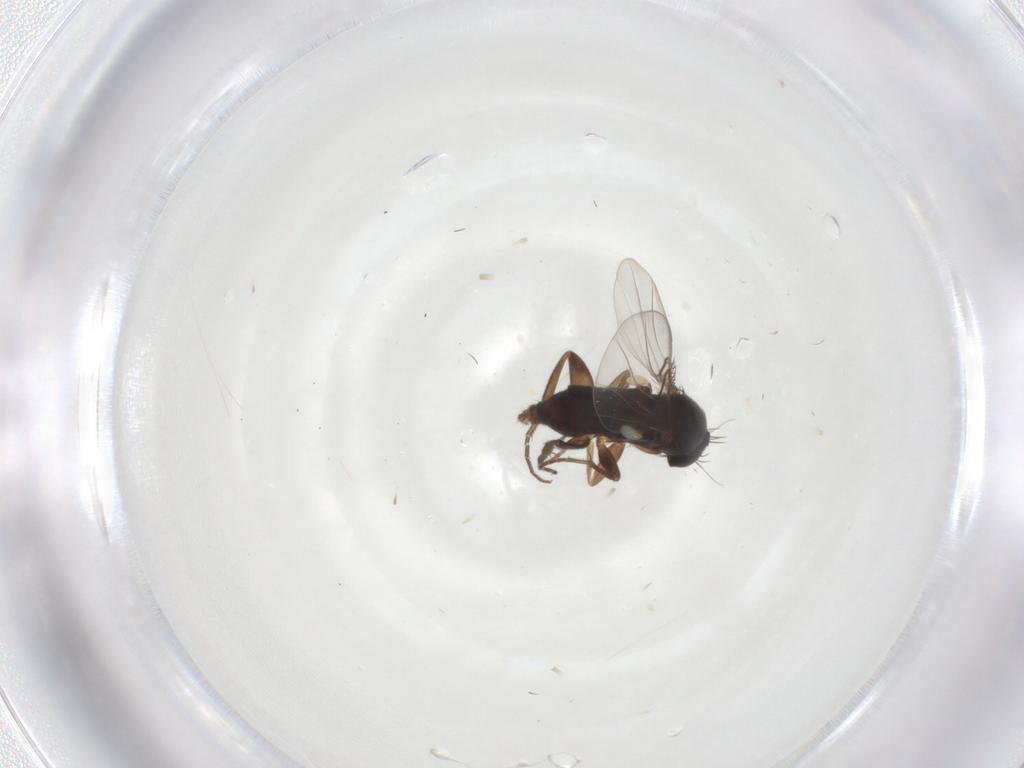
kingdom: Animalia
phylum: Arthropoda
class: Insecta
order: Diptera
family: Phoridae
